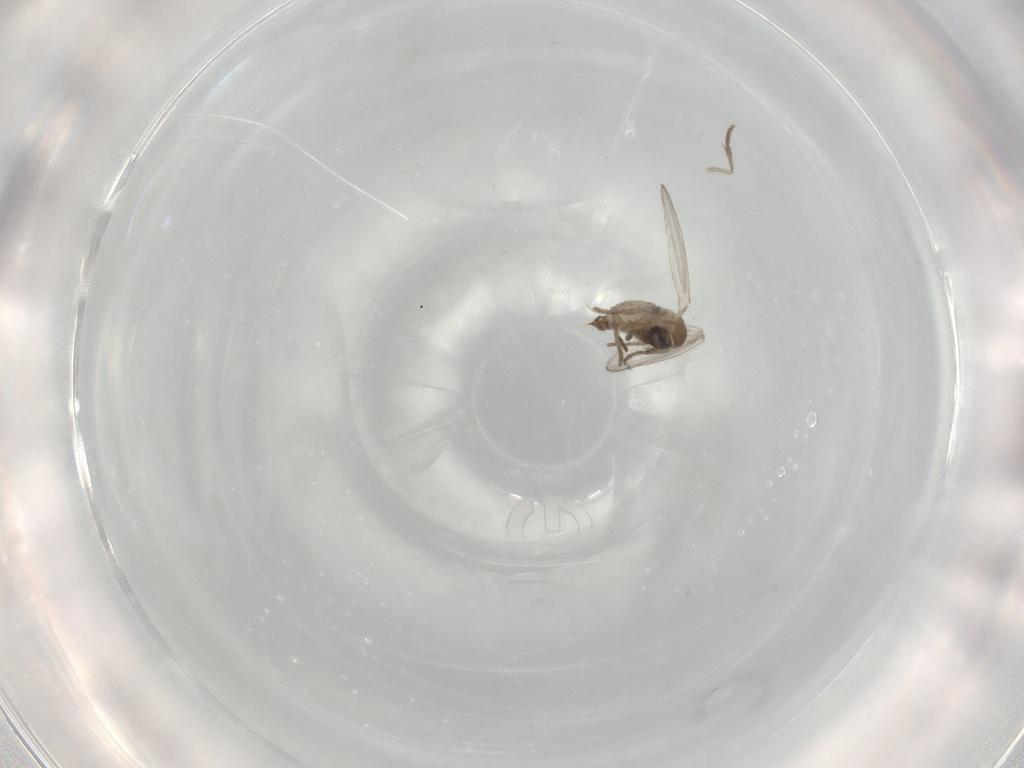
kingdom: Animalia
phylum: Arthropoda
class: Insecta
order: Diptera
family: Psychodidae
